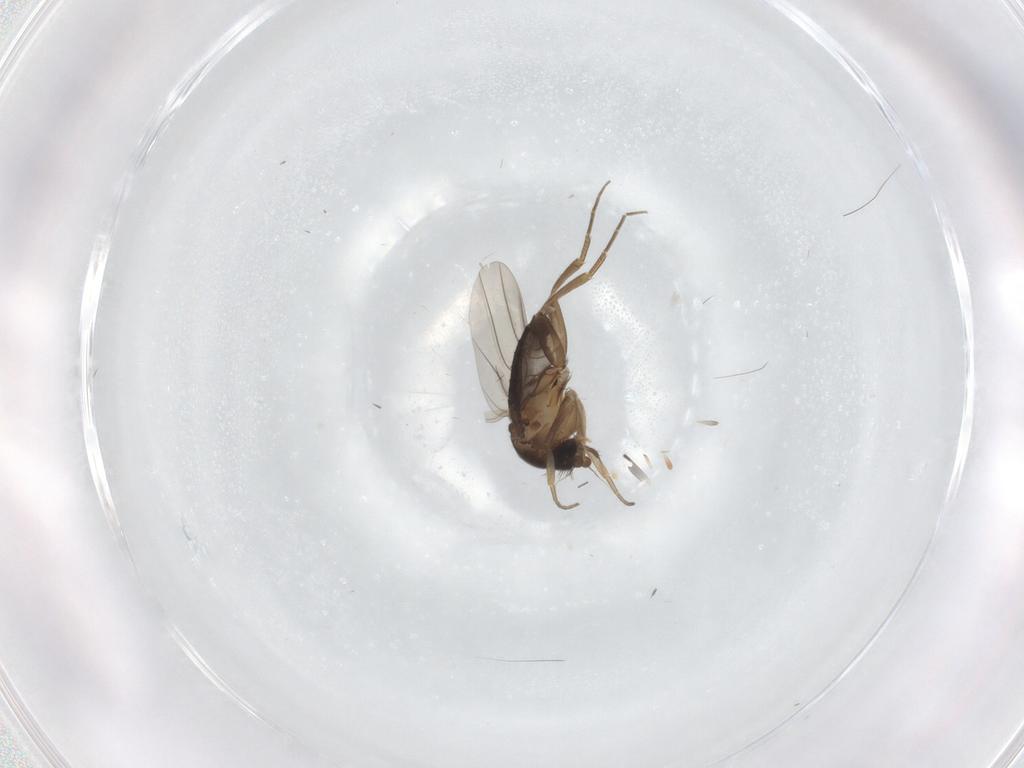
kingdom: Animalia
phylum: Arthropoda
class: Insecta
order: Diptera
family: Phoridae
